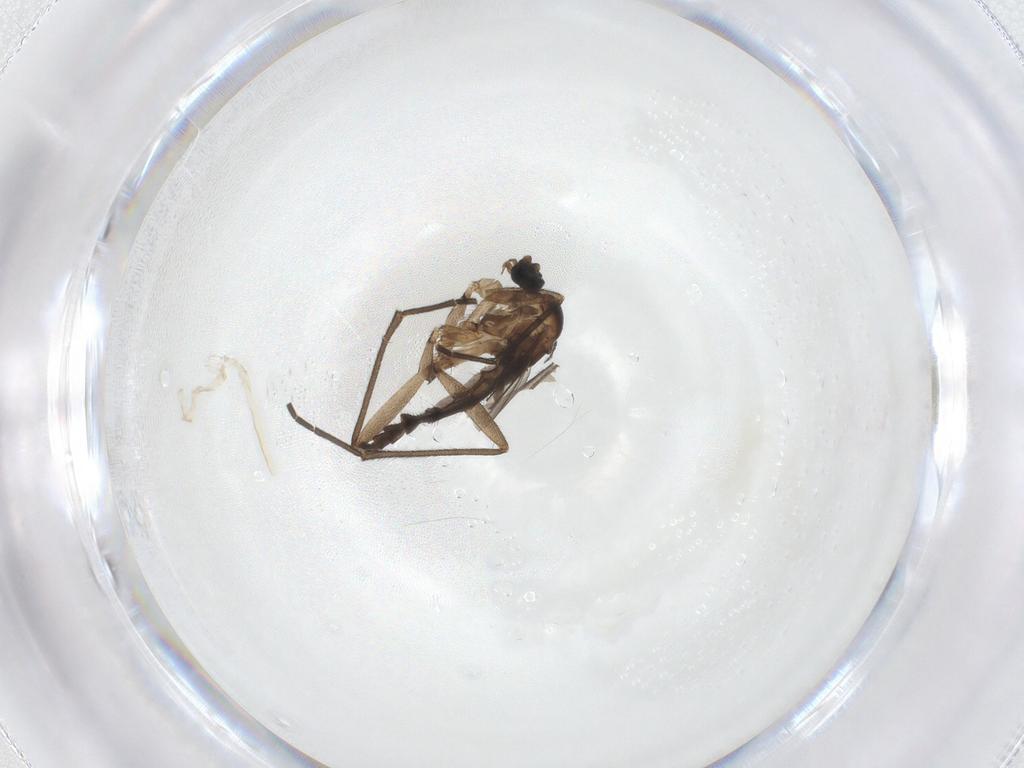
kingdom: Animalia
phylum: Arthropoda
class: Insecta
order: Diptera
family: Sciaridae
